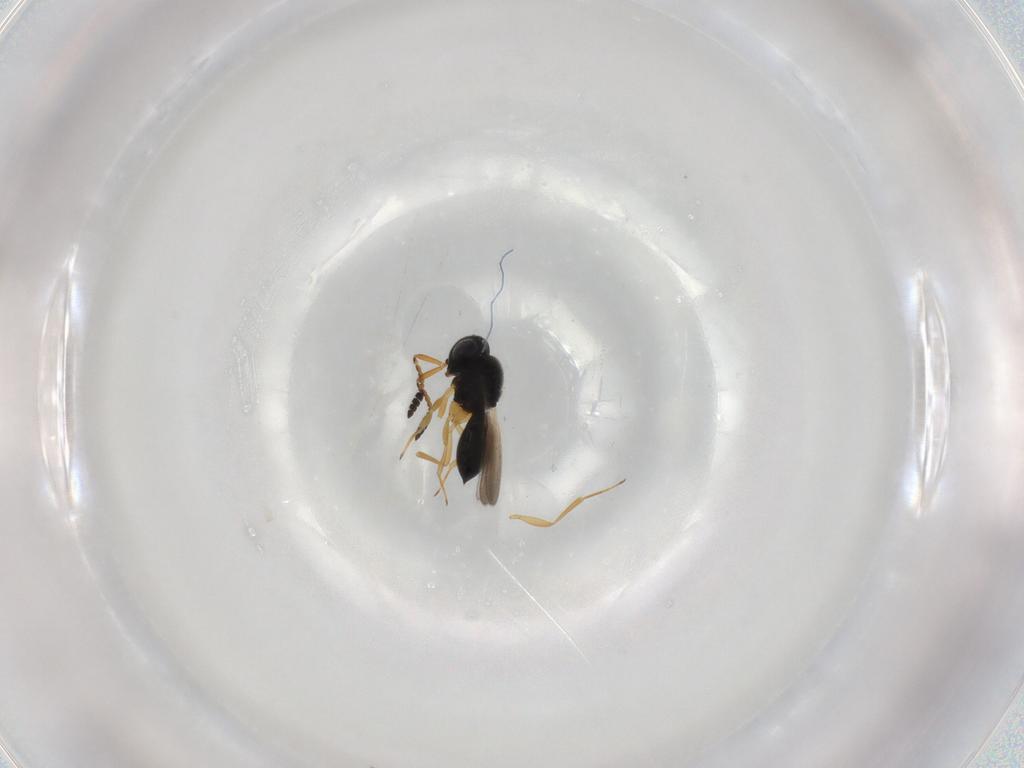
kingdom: Animalia
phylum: Arthropoda
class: Insecta
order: Hymenoptera
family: Scelionidae
